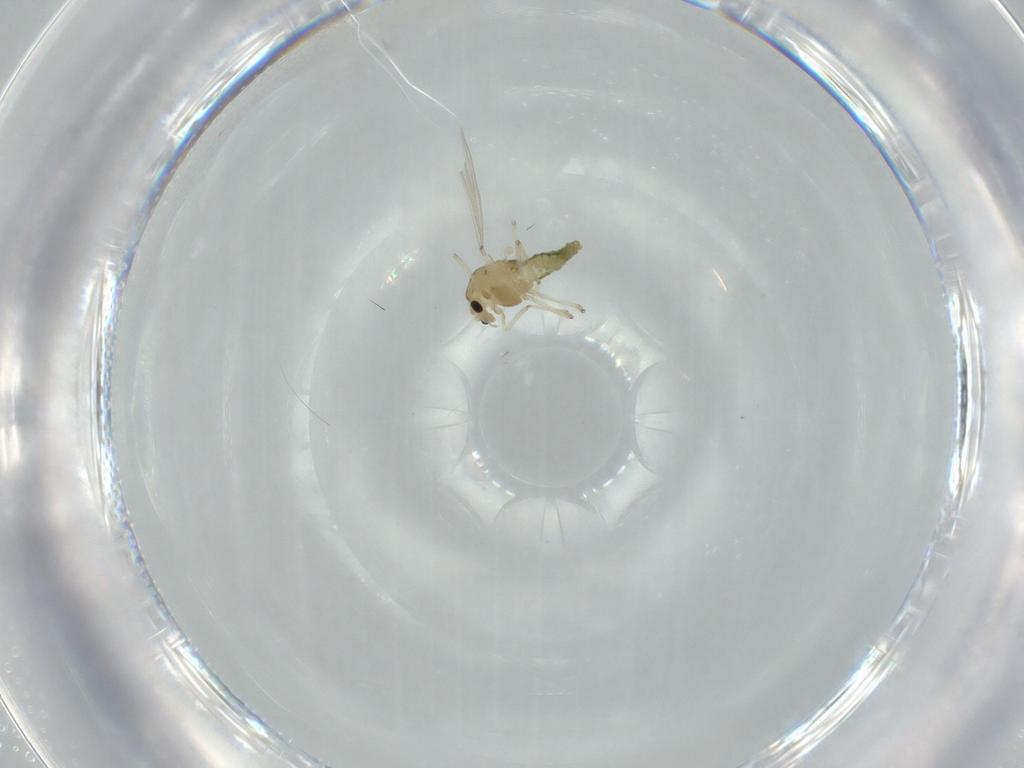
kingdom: Animalia
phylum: Arthropoda
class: Insecta
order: Diptera
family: Chironomidae
